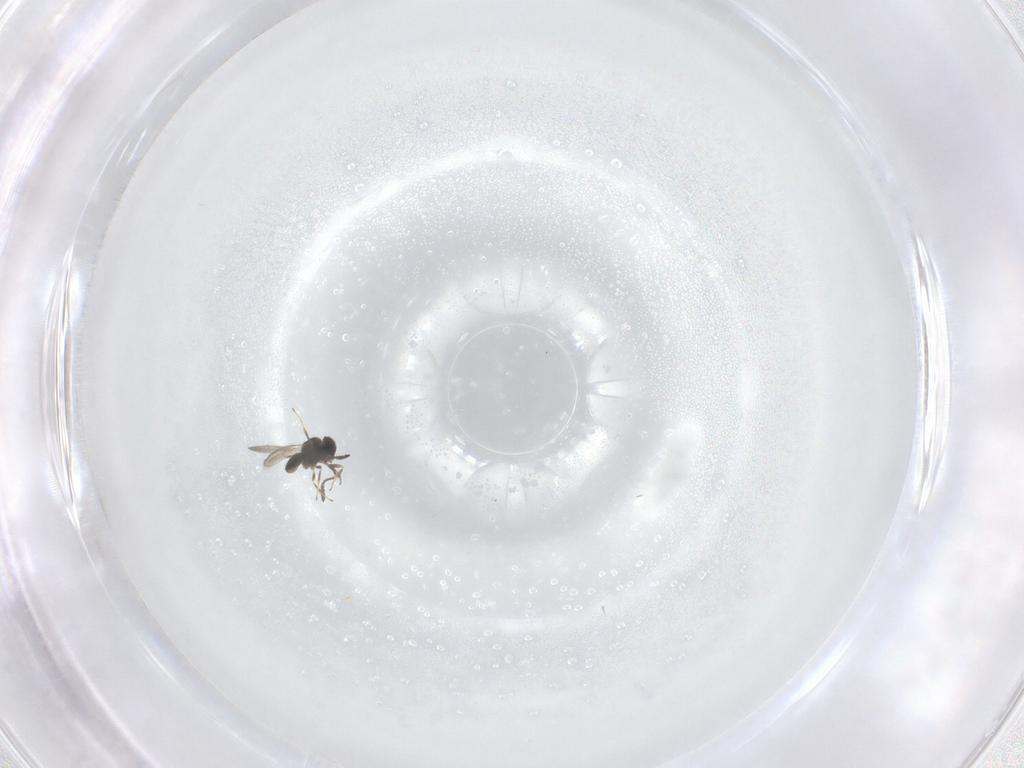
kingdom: Animalia
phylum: Arthropoda
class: Insecta
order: Hymenoptera
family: Scelionidae
